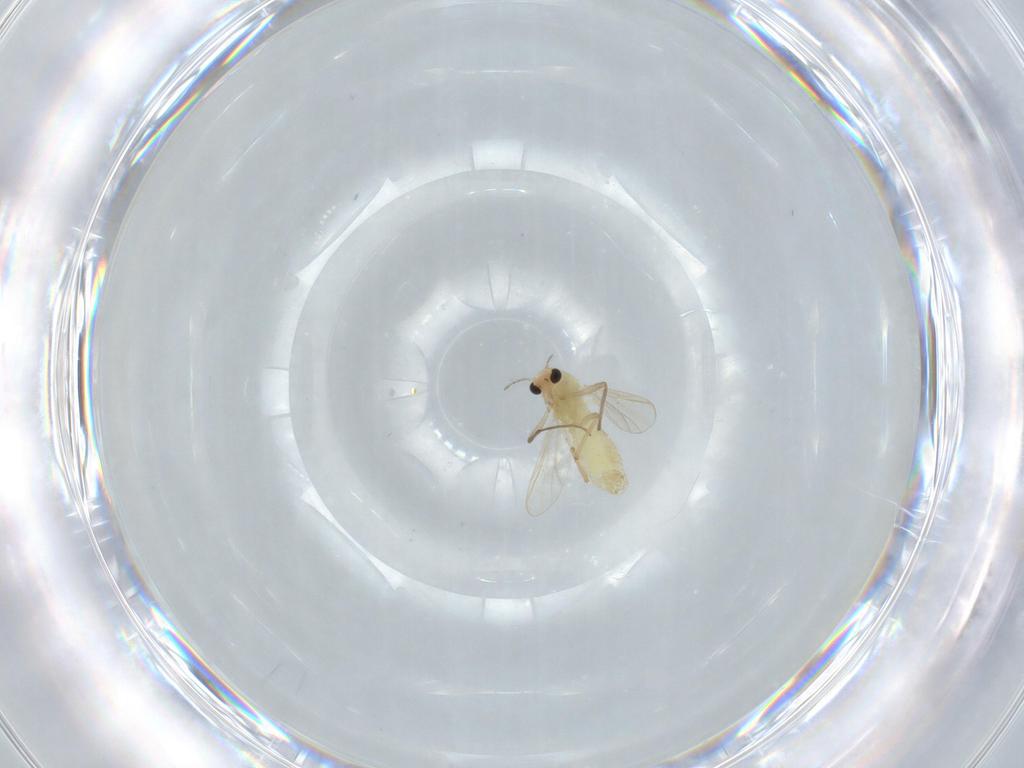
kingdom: Animalia
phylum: Arthropoda
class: Insecta
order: Diptera
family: Chironomidae
